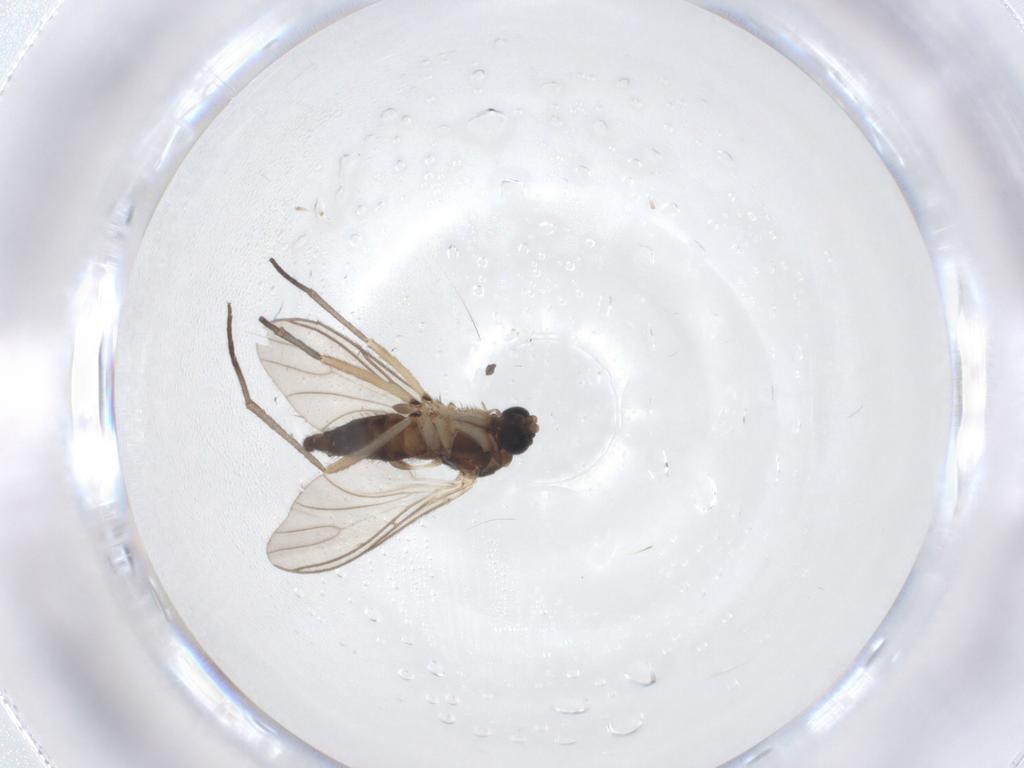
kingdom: Animalia
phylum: Arthropoda
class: Insecta
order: Diptera
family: Sciaridae
